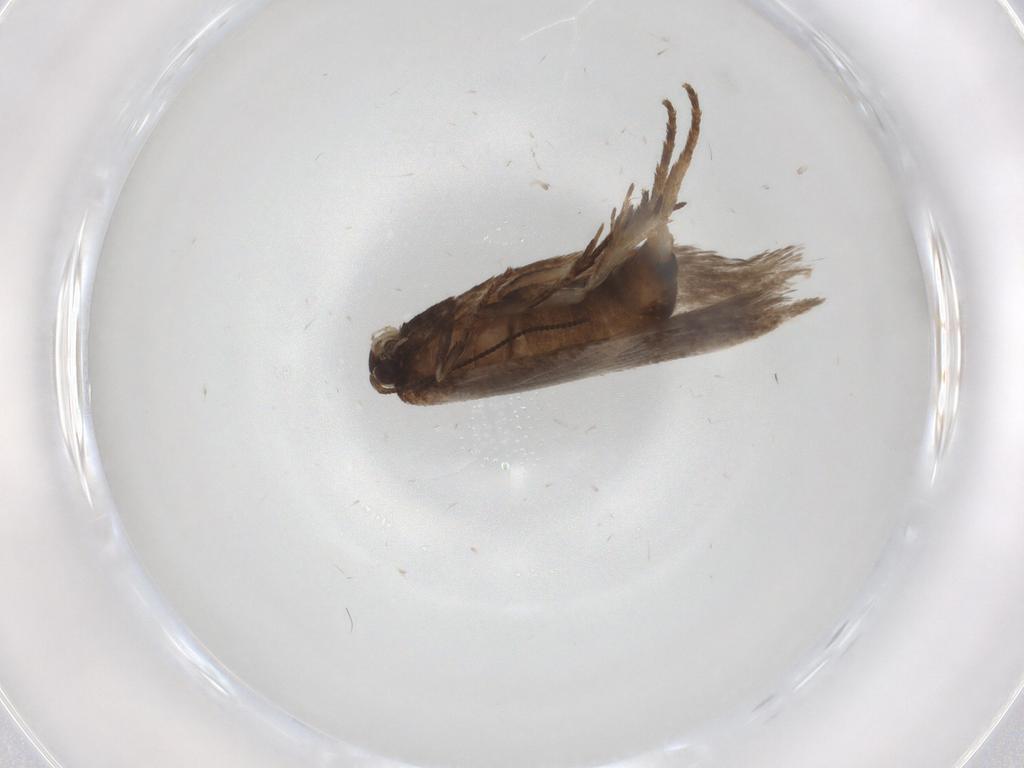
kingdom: Animalia
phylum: Arthropoda
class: Insecta
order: Lepidoptera
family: Nepticulidae
